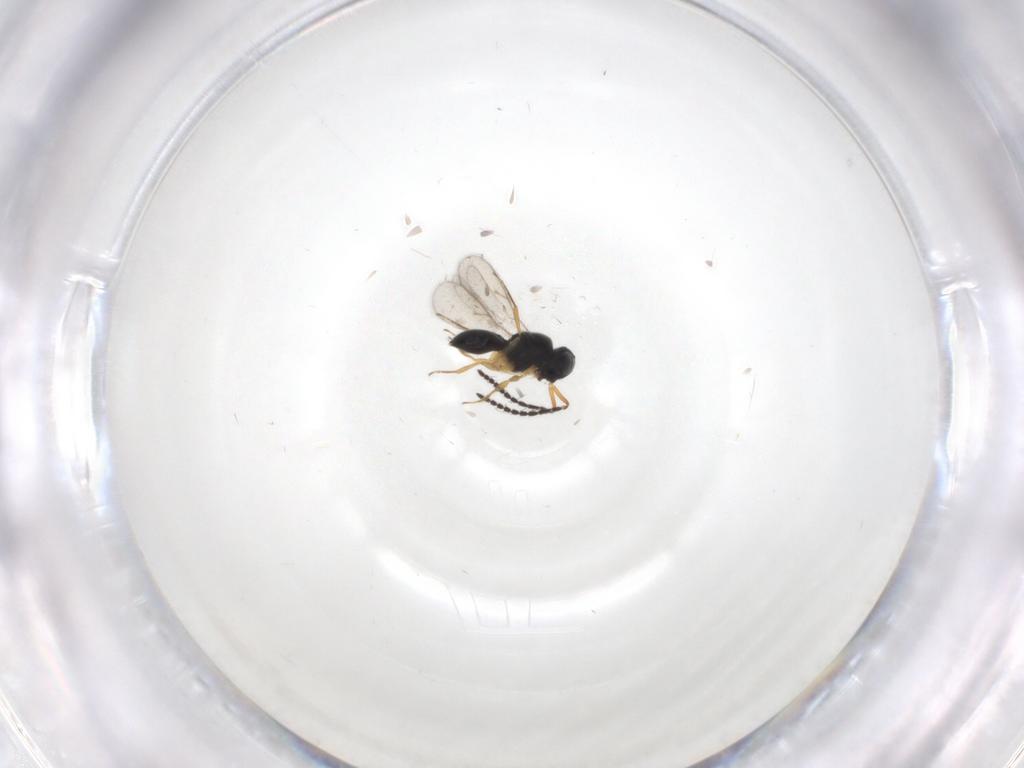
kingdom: Animalia
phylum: Arthropoda
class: Insecta
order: Hymenoptera
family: Scelionidae
